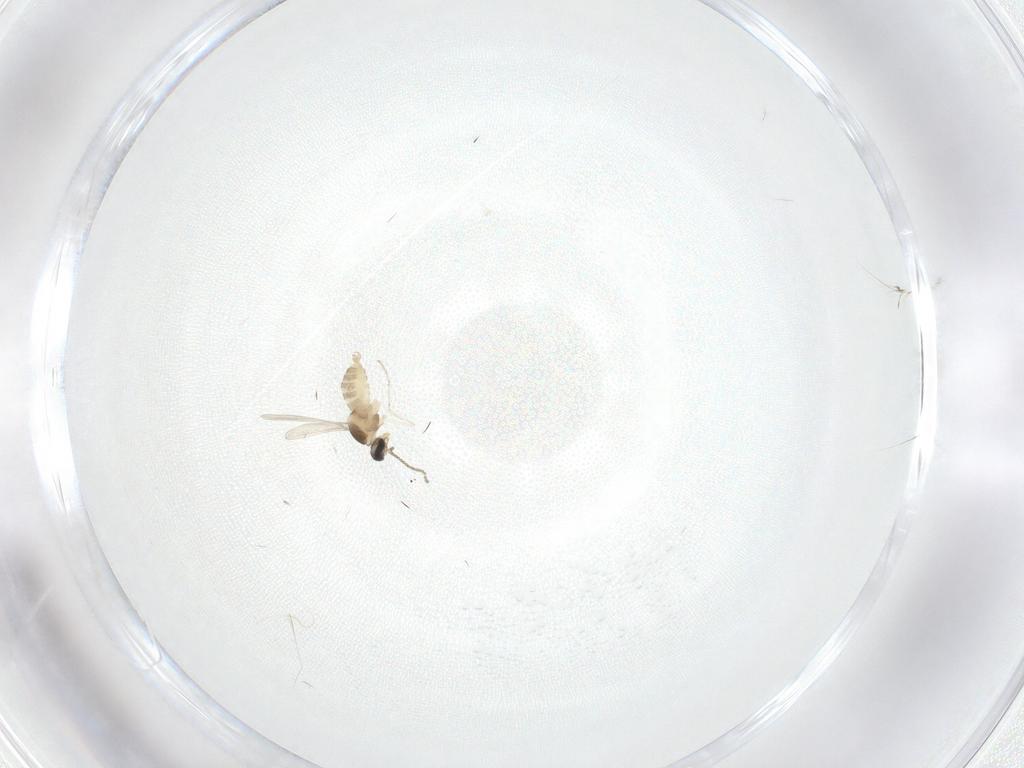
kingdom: Animalia
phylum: Arthropoda
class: Insecta
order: Diptera
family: Cecidomyiidae
